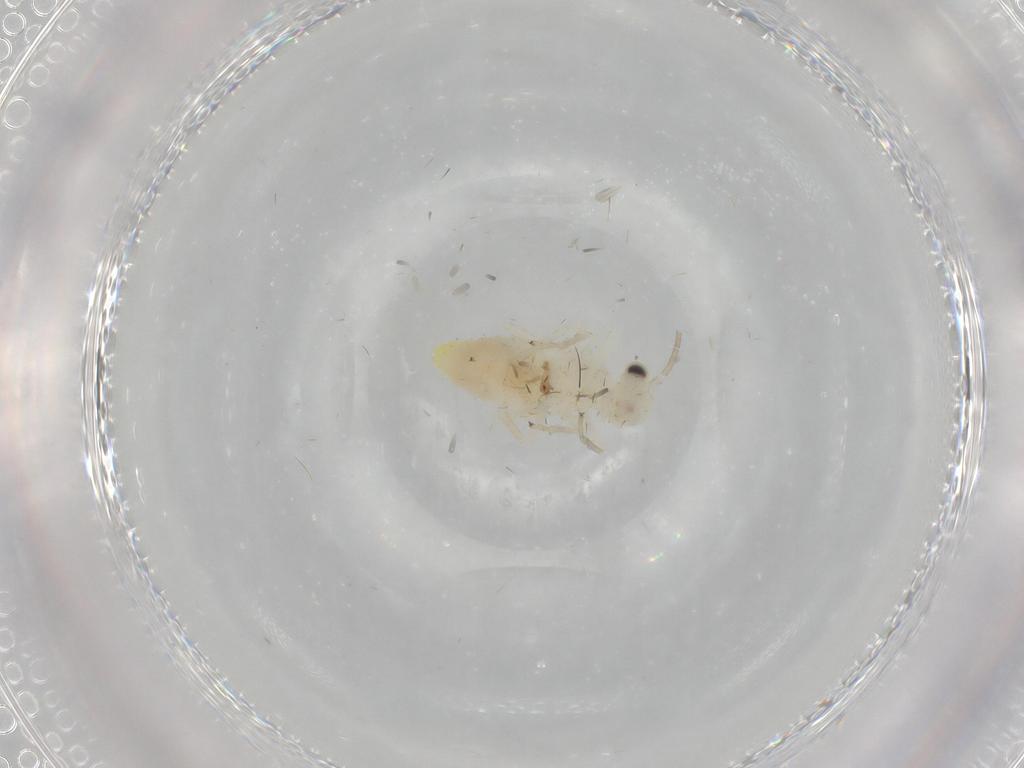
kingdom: Animalia
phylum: Arthropoda
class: Insecta
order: Psocodea
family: Caeciliusidae
